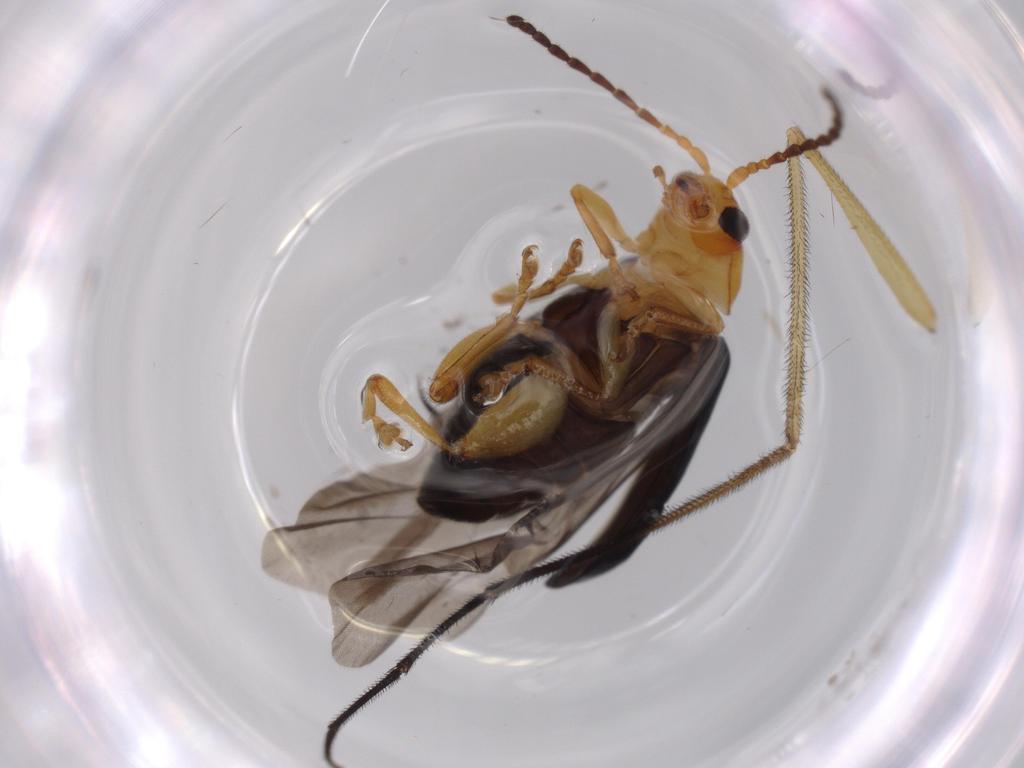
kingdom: Animalia
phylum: Arthropoda
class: Insecta
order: Coleoptera
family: Chrysomelidae
